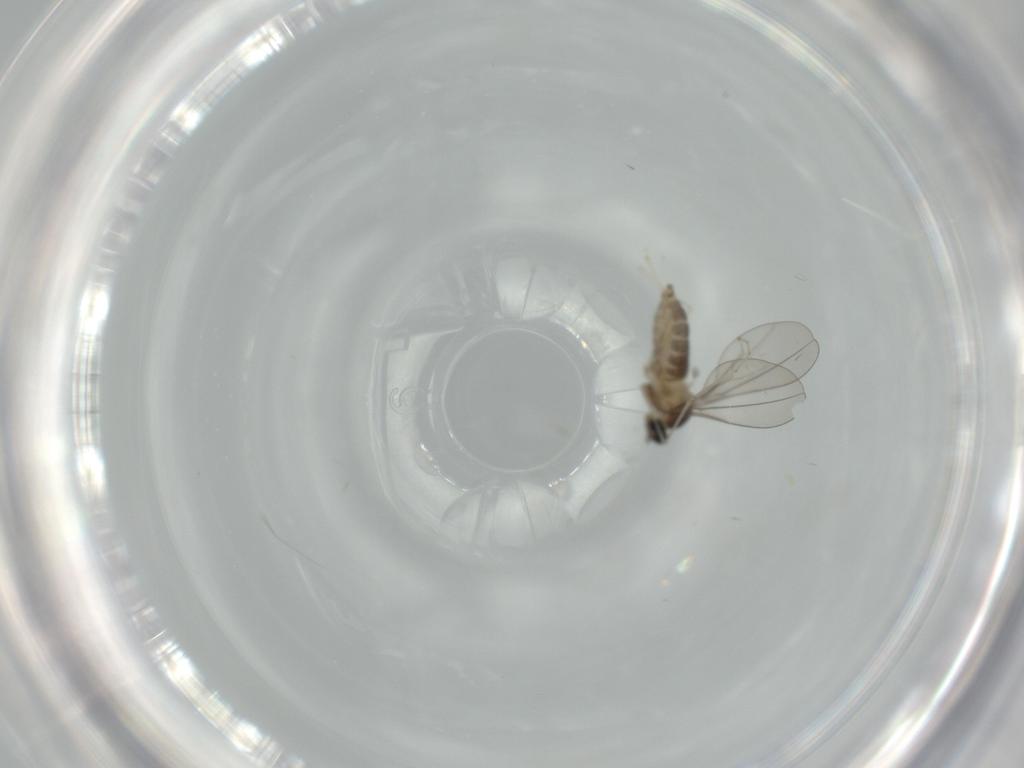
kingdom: Animalia
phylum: Arthropoda
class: Insecta
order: Diptera
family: Cecidomyiidae
